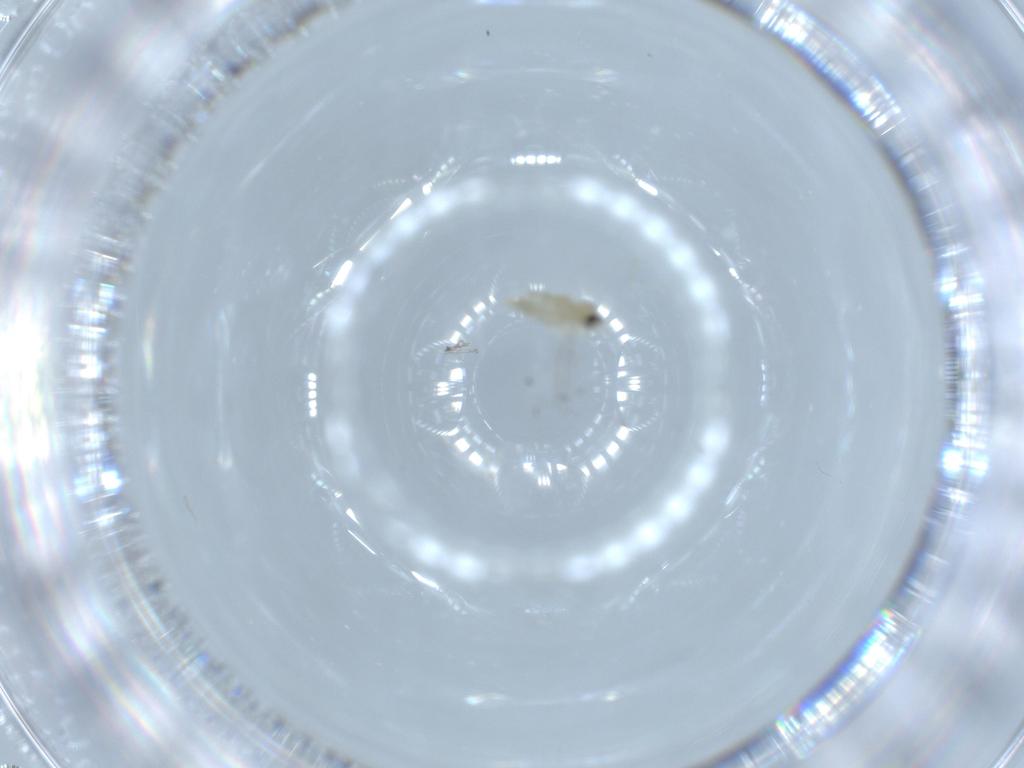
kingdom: Animalia
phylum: Arthropoda
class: Insecta
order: Diptera
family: Cecidomyiidae
